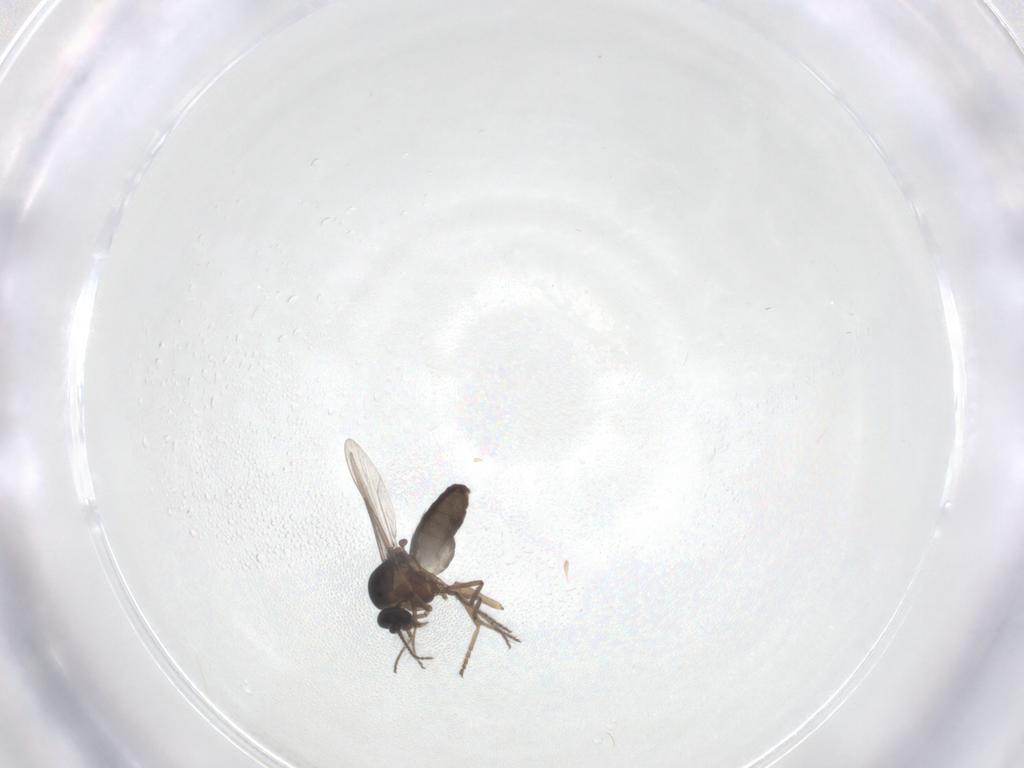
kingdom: Animalia
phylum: Arthropoda
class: Insecta
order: Diptera
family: Ceratopogonidae
